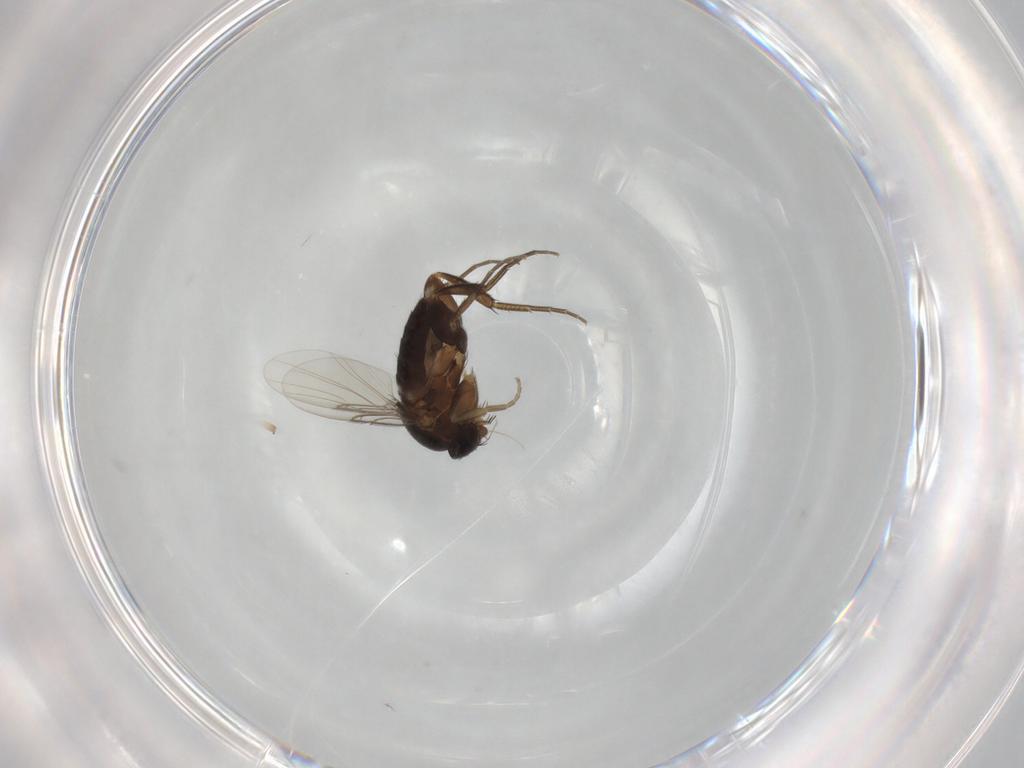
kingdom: Animalia
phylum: Arthropoda
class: Insecta
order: Diptera
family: Phoridae
